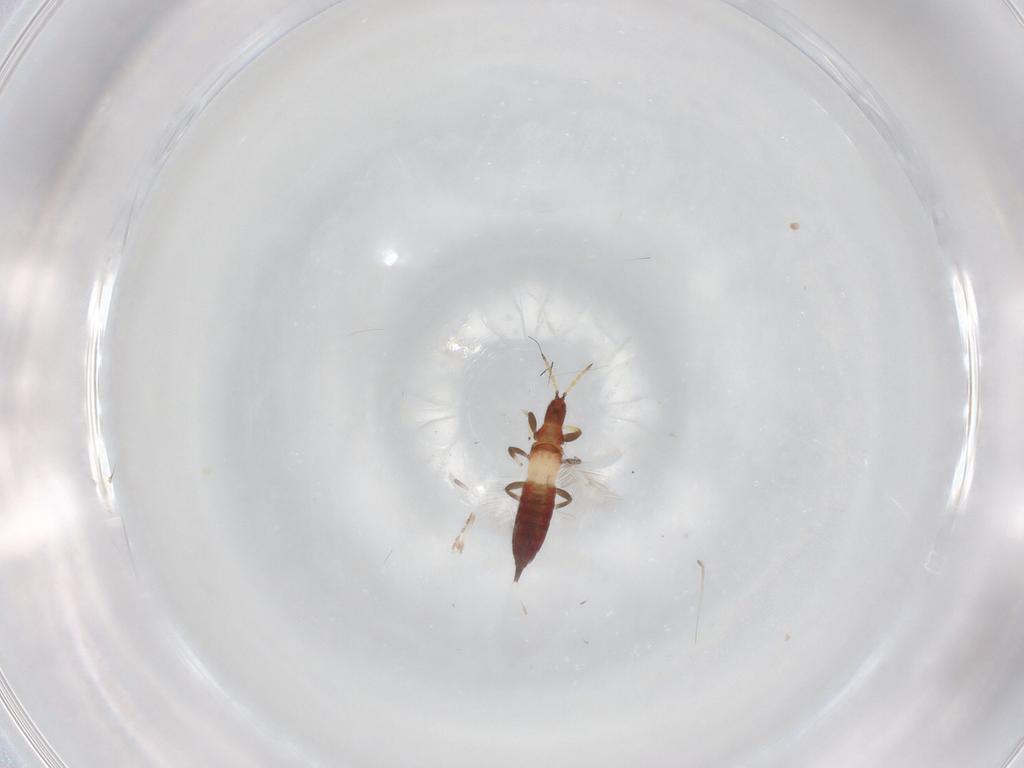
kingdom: Animalia
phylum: Arthropoda
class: Insecta
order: Thysanoptera
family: Phlaeothripidae
